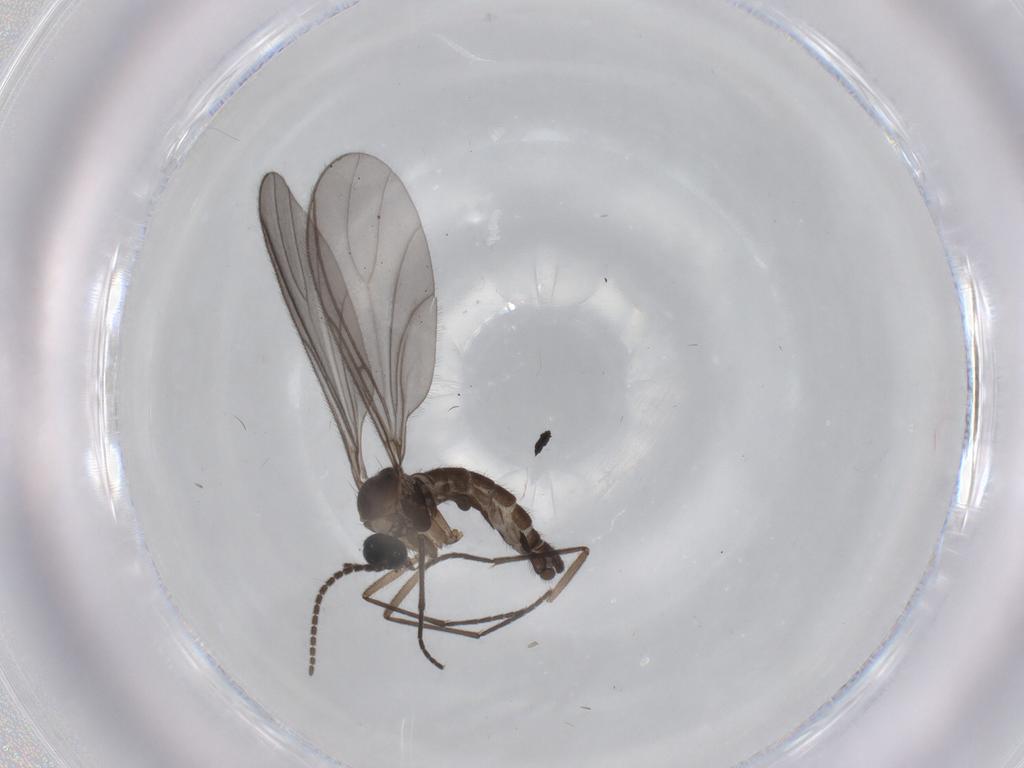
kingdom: Animalia
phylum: Arthropoda
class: Insecta
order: Diptera
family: Sciaridae
